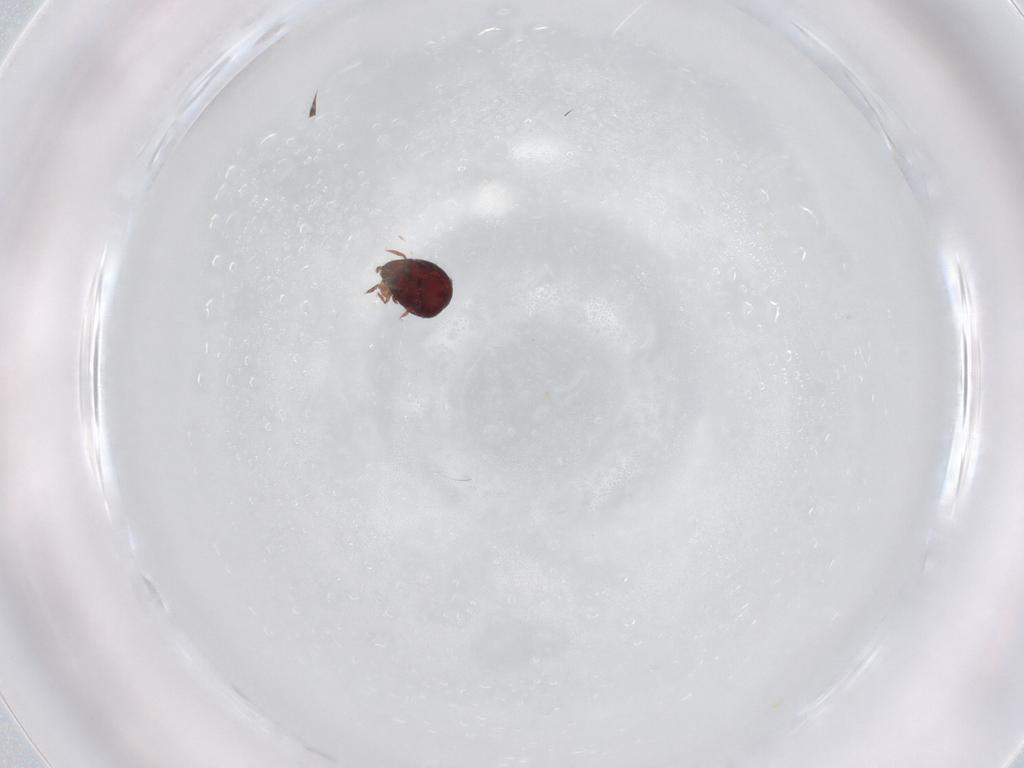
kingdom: Animalia
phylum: Arthropoda
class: Arachnida
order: Sarcoptiformes
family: Humerobatidae
